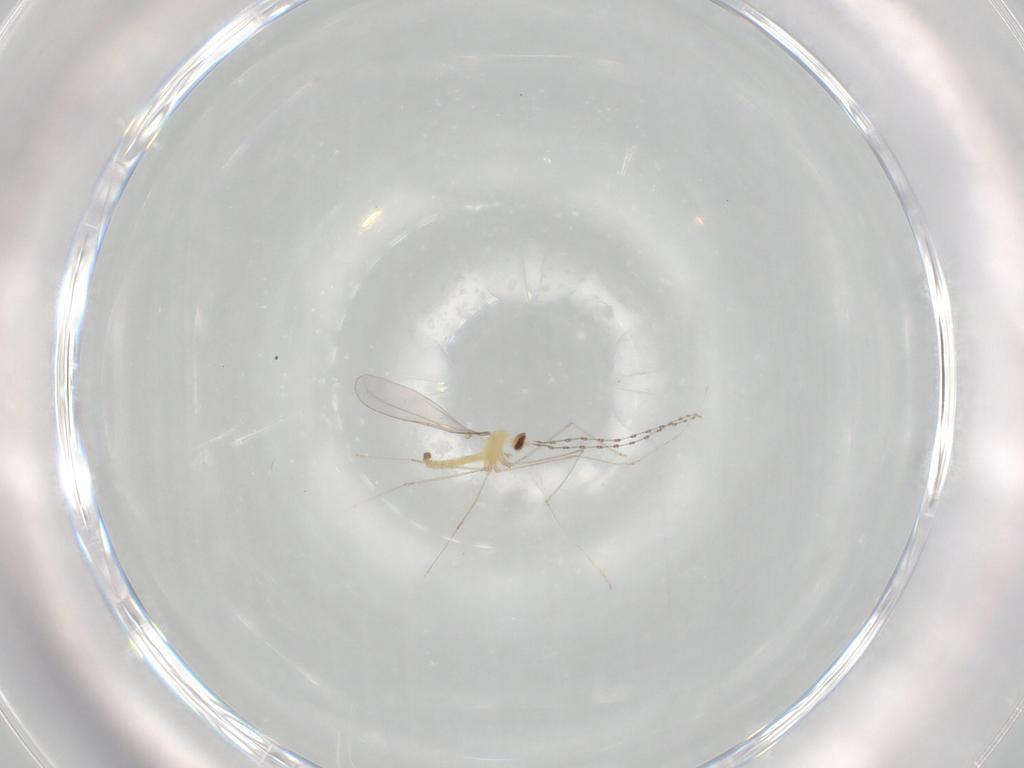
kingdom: Animalia
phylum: Arthropoda
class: Insecta
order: Diptera
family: Cecidomyiidae
